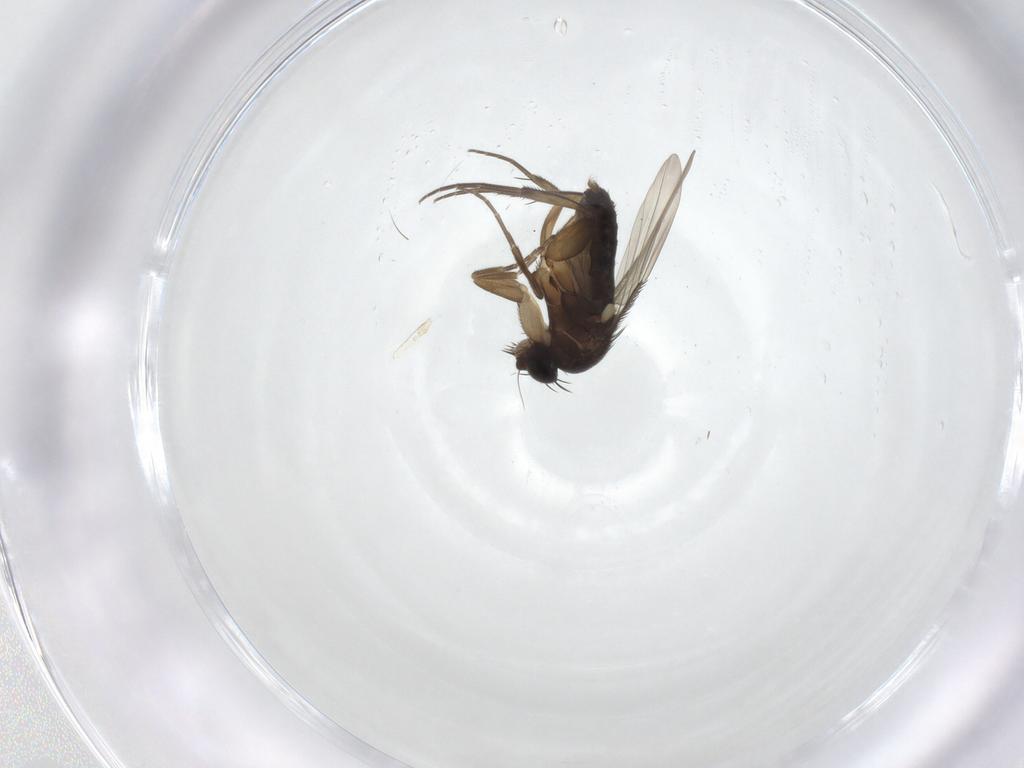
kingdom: Animalia
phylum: Arthropoda
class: Insecta
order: Diptera
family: Phoridae
